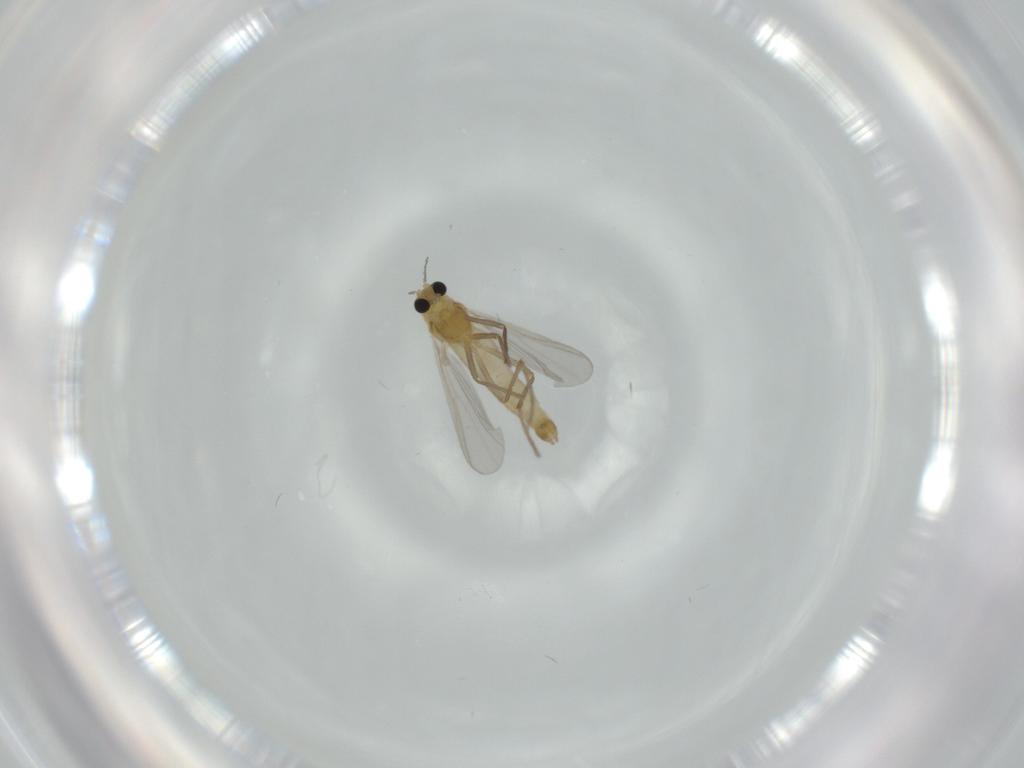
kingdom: Animalia
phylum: Arthropoda
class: Insecta
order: Diptera
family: Chironomidae
